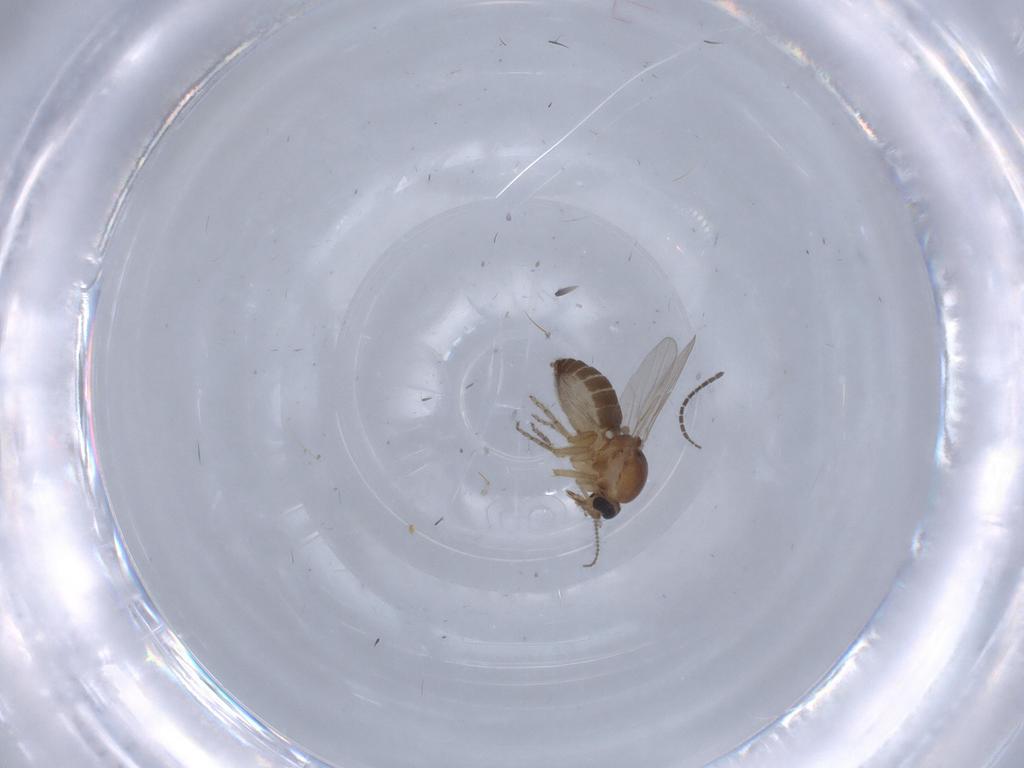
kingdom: Animalia
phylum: Arthropoda
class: Insecta
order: Diptera
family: Ceratopogonidae
